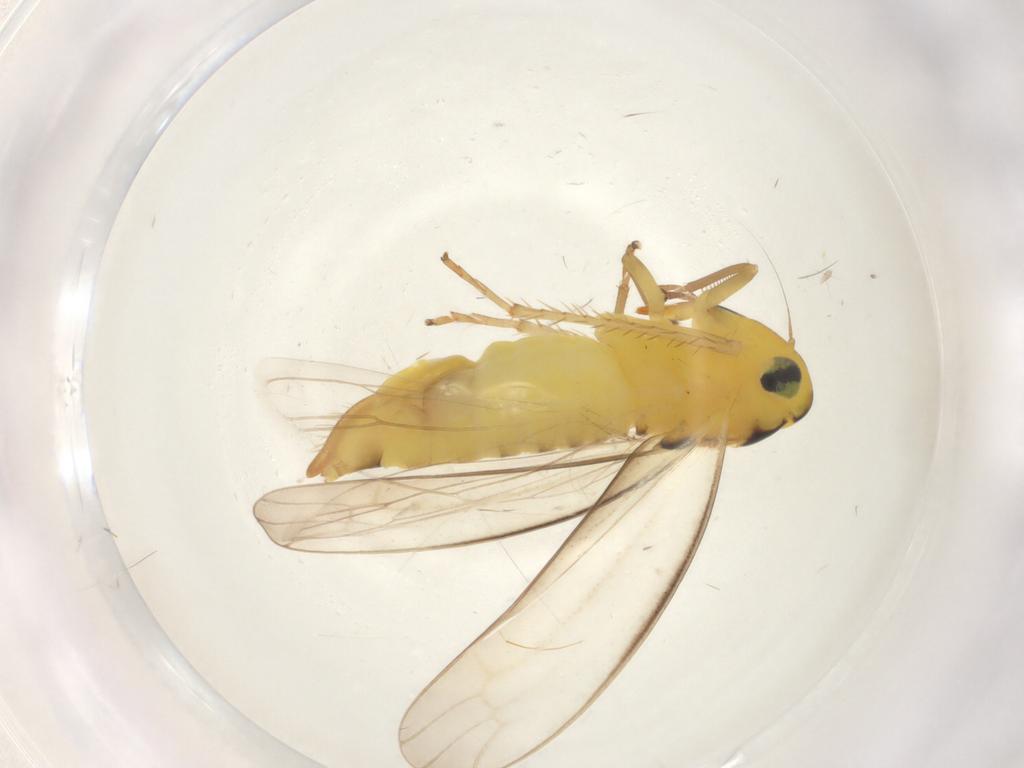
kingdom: Animalia
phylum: Arthropoda
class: Insecta
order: Hemiptera
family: Cicadellidae
